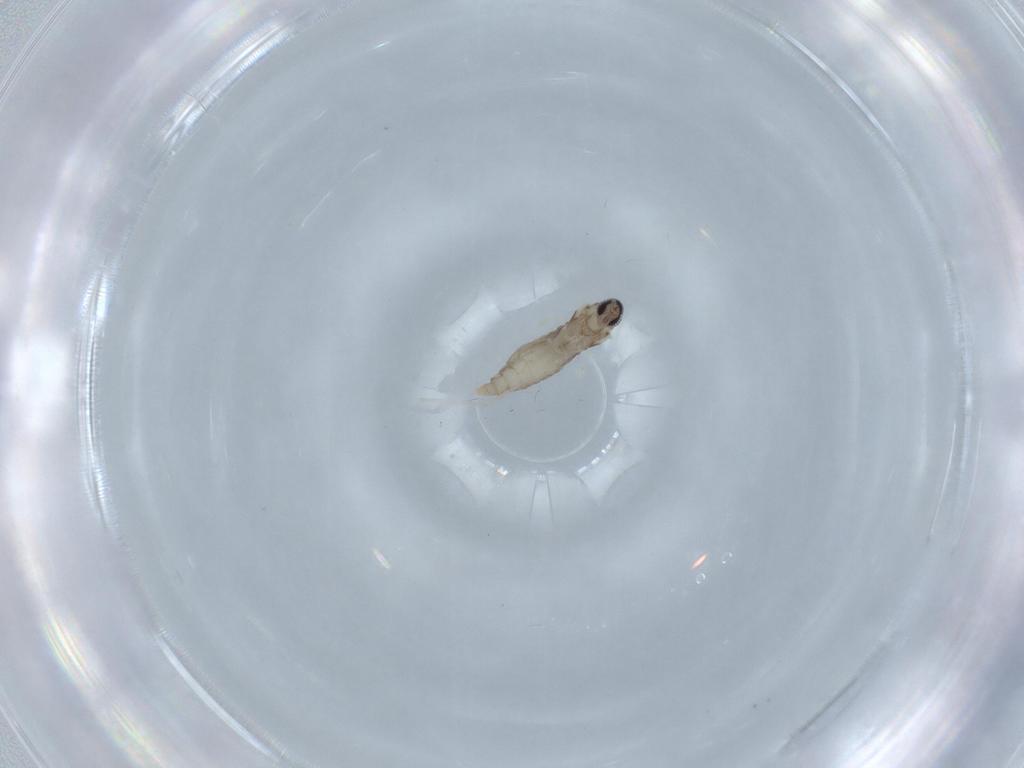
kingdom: Animalia
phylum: Arthropoda
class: Insecta
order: Diptera
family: Cecidomyiidae
